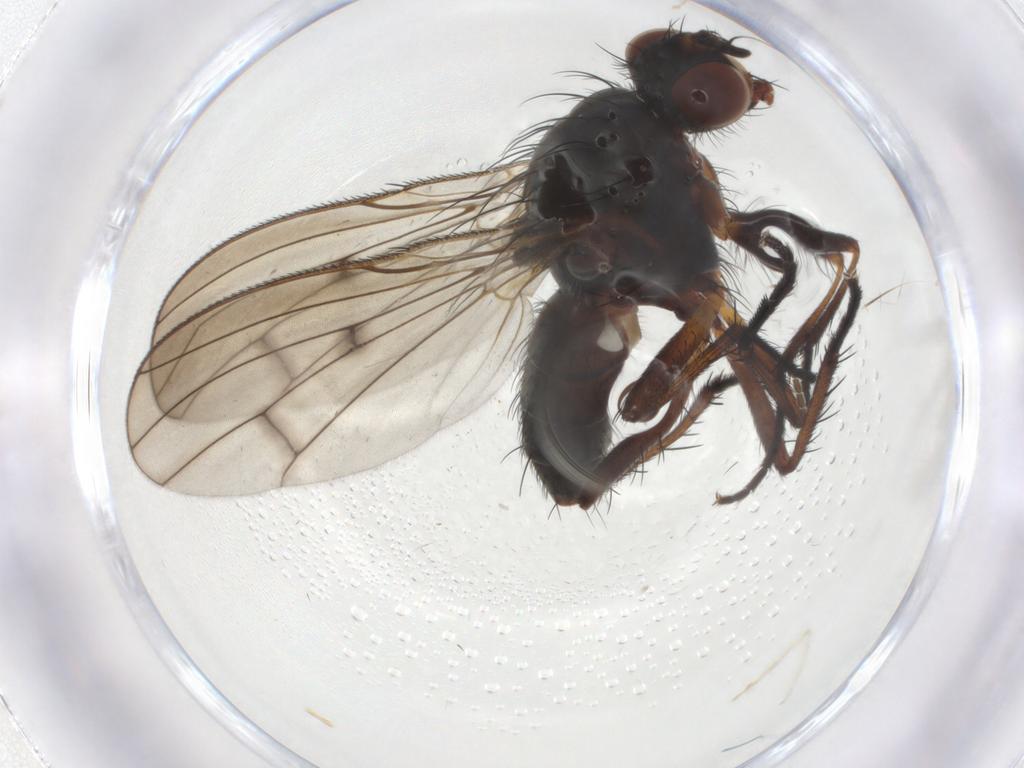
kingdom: Animalia
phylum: Arthropoda
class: Insecta
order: Diptera
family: Anthomyiidae
